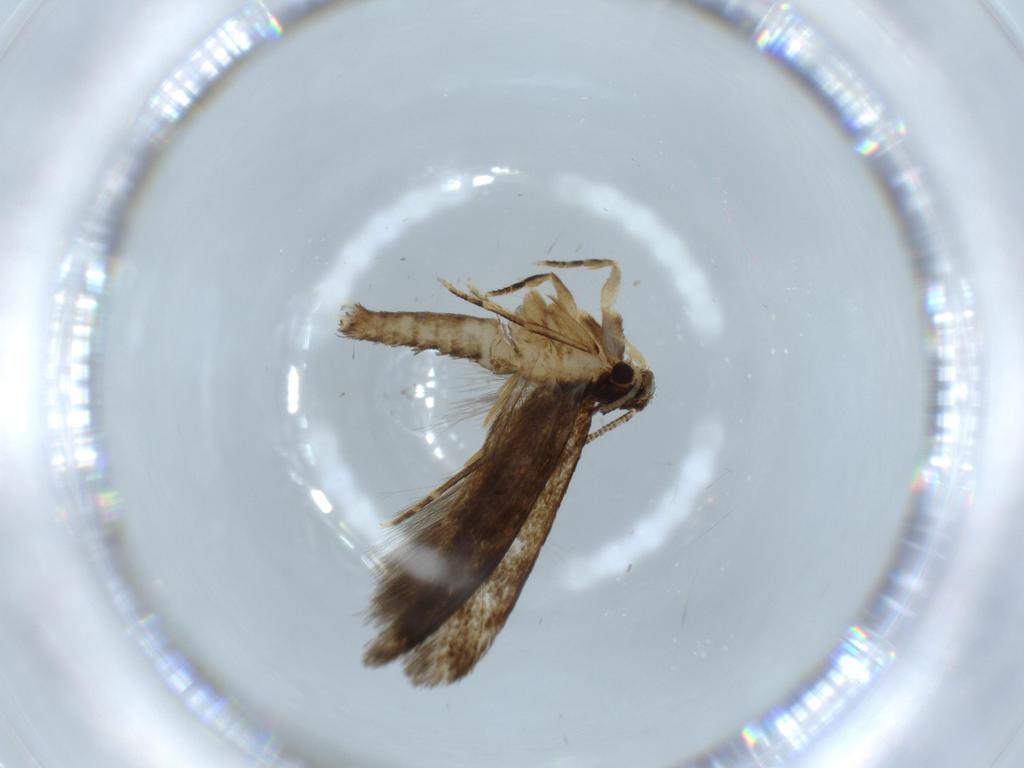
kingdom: Animalia
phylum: Arthropoda
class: Insecta
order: Lepidoptera
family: Tineidae
